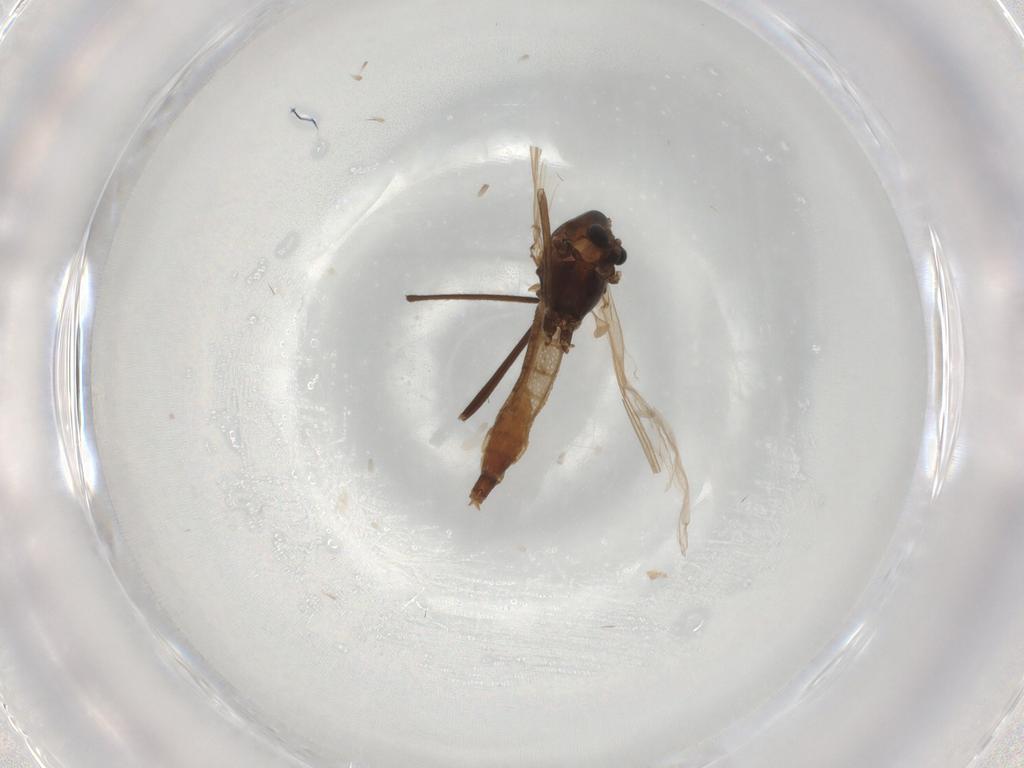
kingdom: Animalia
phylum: Arthropoda
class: Insecta
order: Diptera
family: Chironomidae
